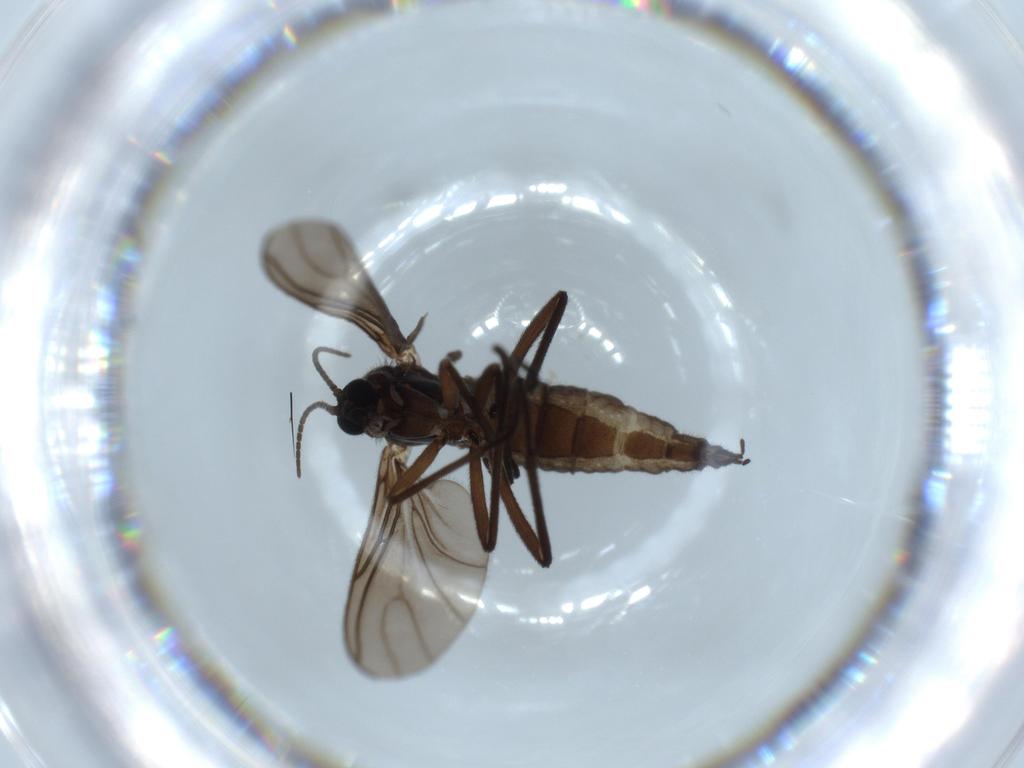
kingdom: Animalia
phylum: Arthropoda
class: Insecta
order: Diptera
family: Sciaridae
